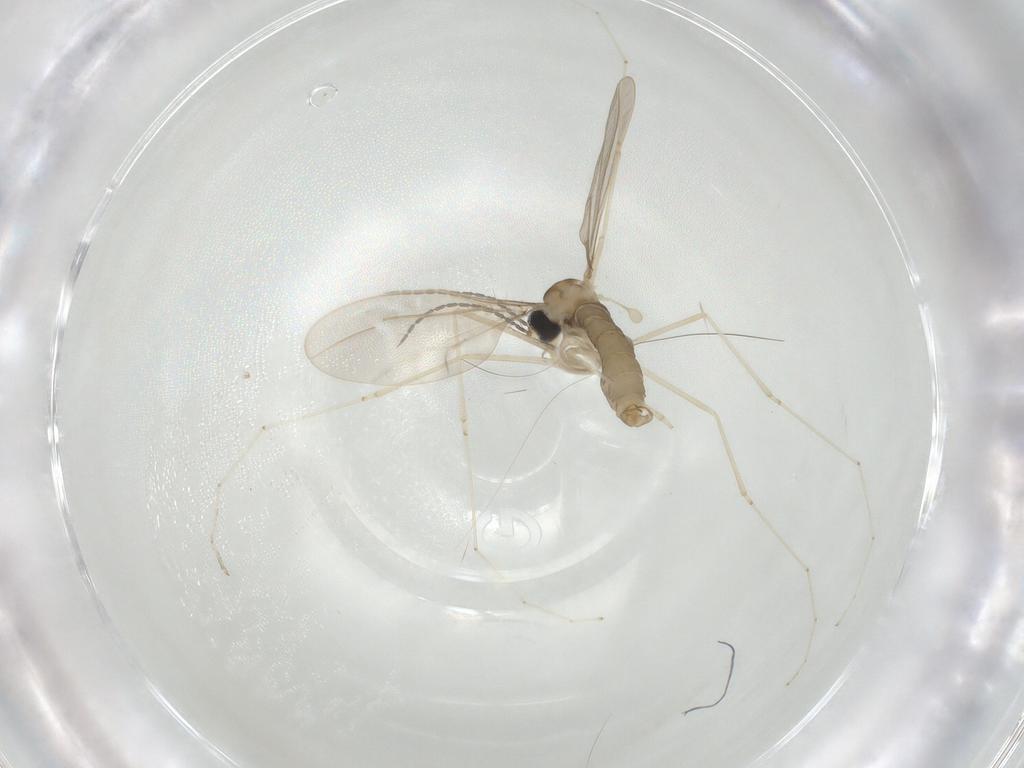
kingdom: Animalia
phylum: Arthropoda
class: Insecta
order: Diptera
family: Cecidomyiidae
